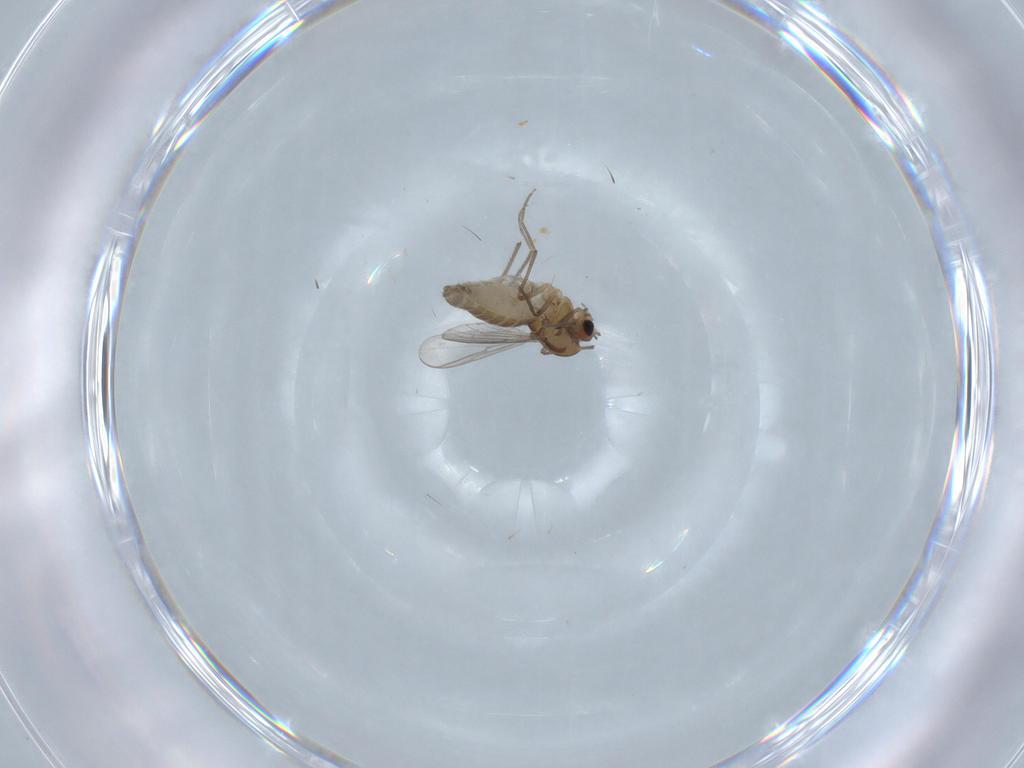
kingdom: Animalia
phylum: Arthropoda
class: Insecta
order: Diptera
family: Chironomidae
